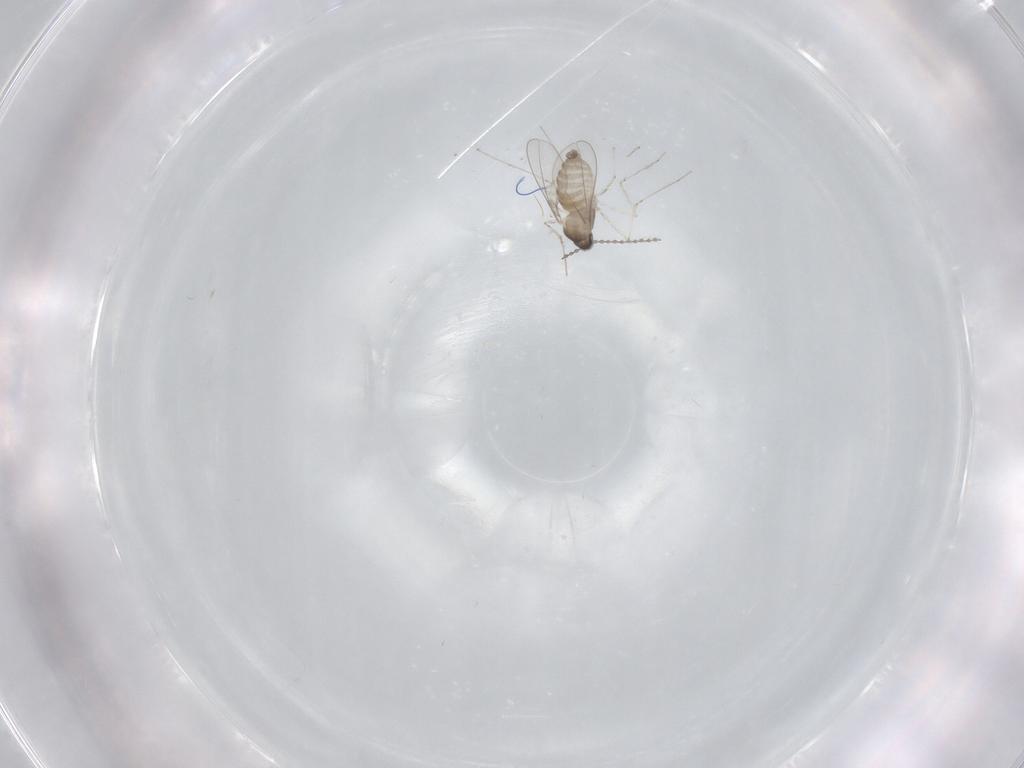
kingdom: Animalia
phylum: Arthropoda
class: Insecta
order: Diptera
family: Cecidomyiidae
